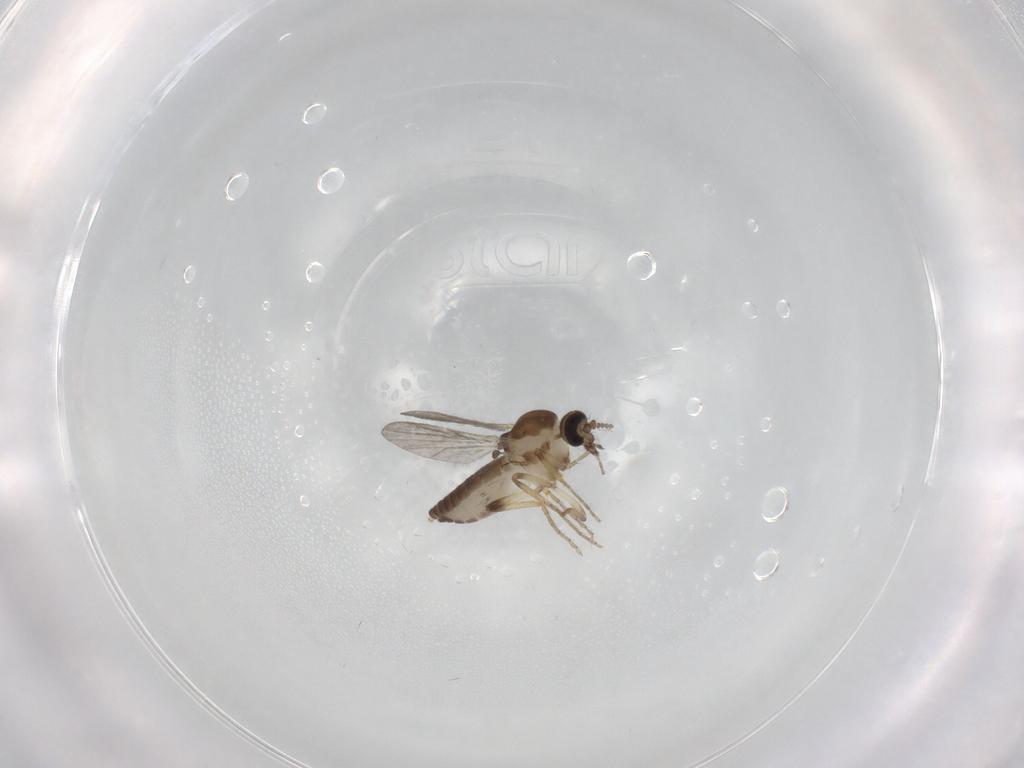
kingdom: Animalia
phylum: Arthropoda
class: Insecta
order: Diptera
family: Ceratopogonidae
